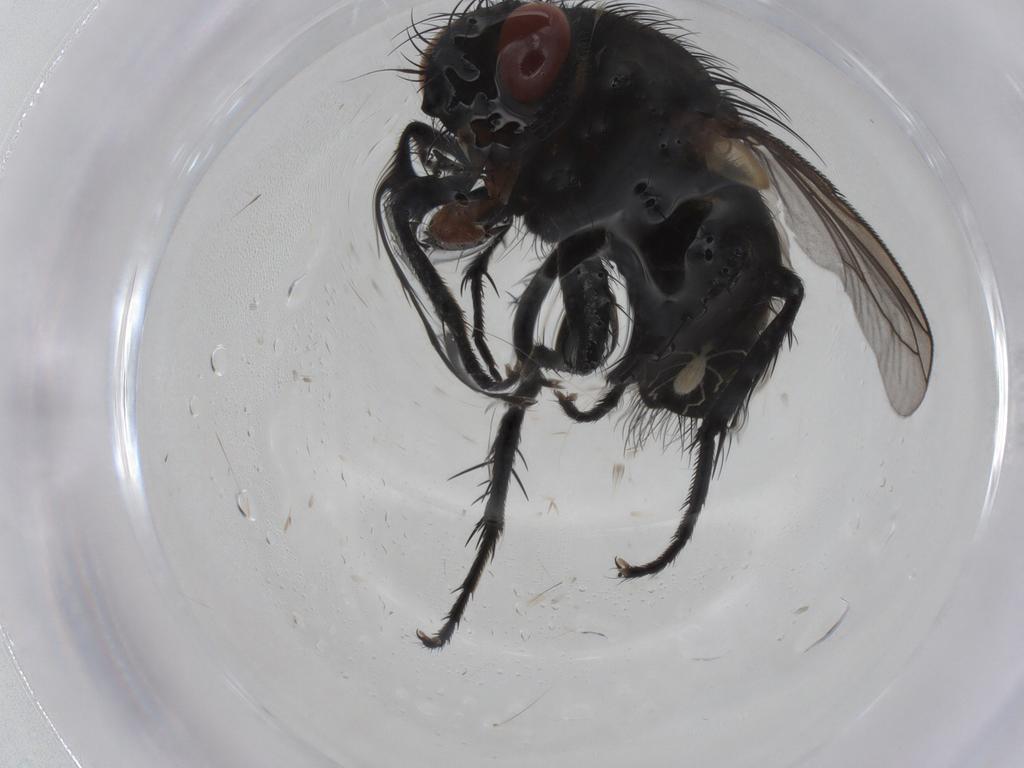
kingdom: Animalia
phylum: Arthropoda
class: Insecta
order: Diptera
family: Tachinidae
